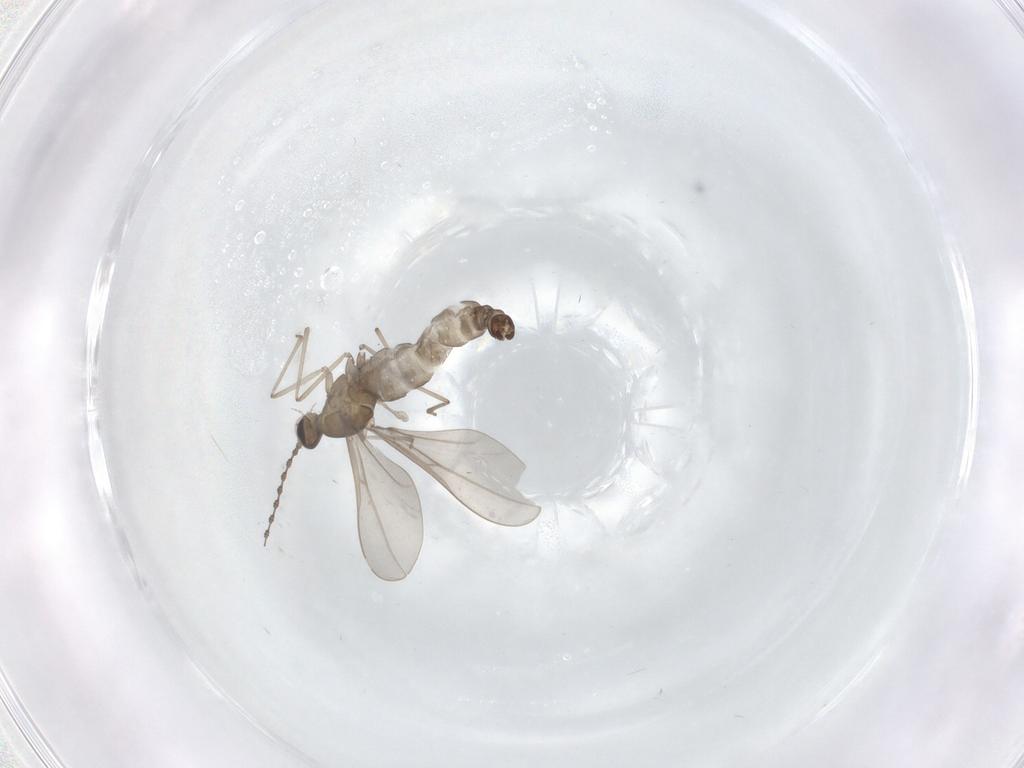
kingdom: Animalia
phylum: Arthropoda
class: Insecta
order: Diptera
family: Cecidomyiidae
